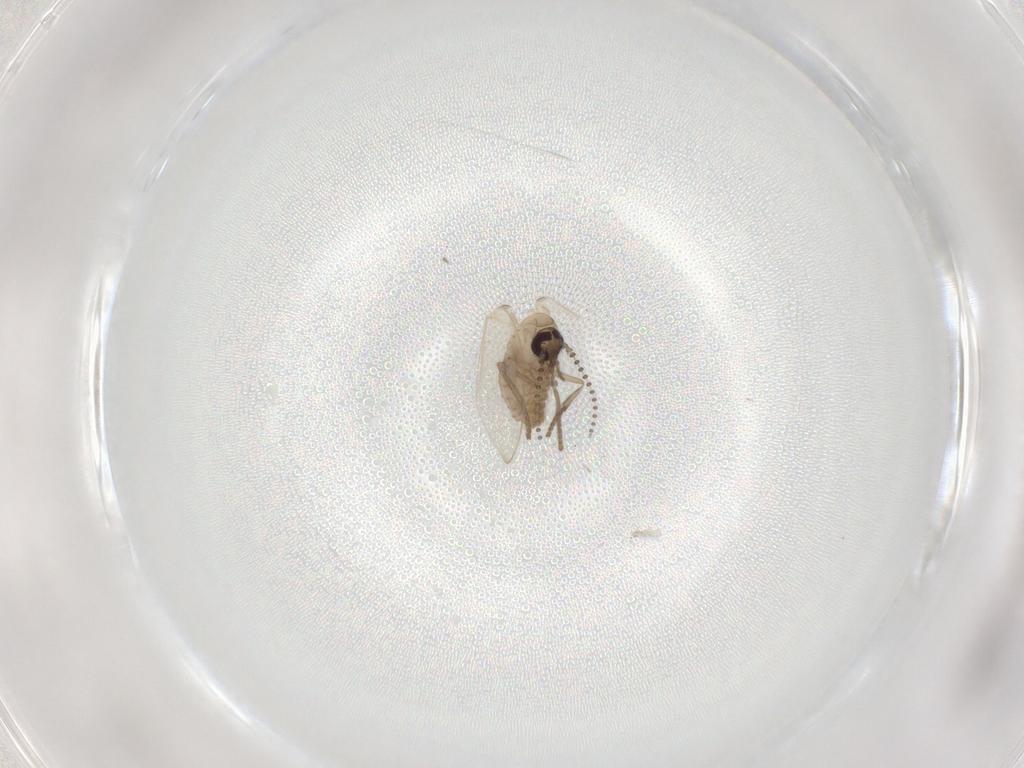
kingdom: Animalia
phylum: Arthropoda
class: Insecta
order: Diptera
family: Psychodidae
